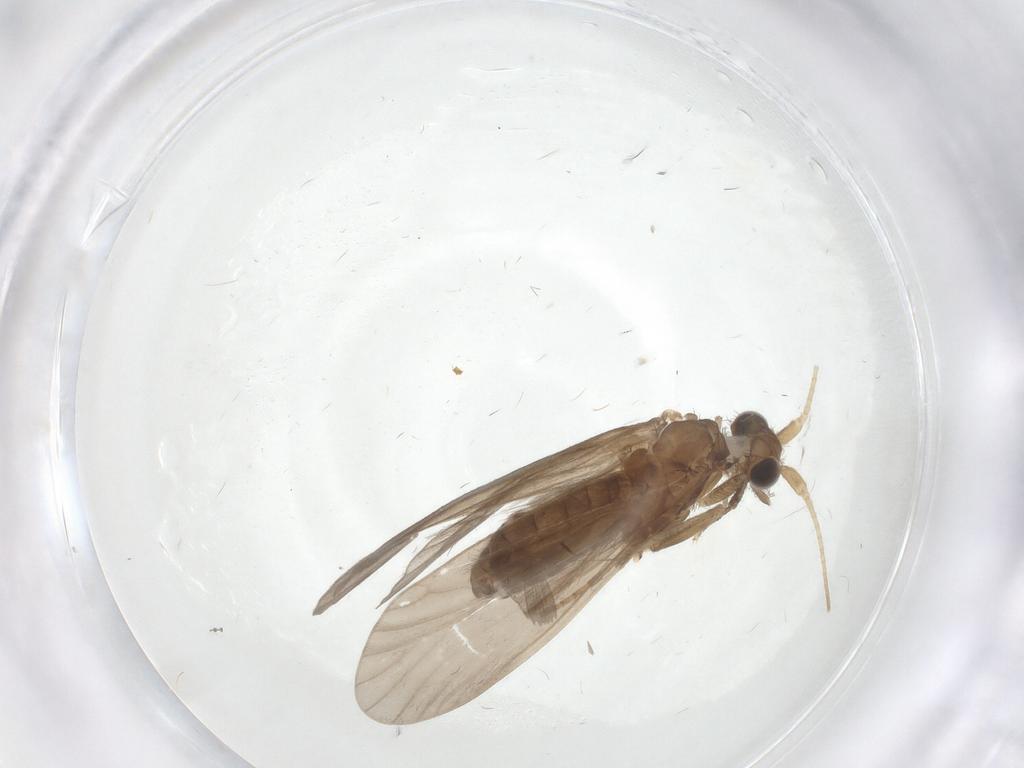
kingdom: Animalia
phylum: Arthropoda
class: Insecta
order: Trichoptera
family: Helicopsychidae
